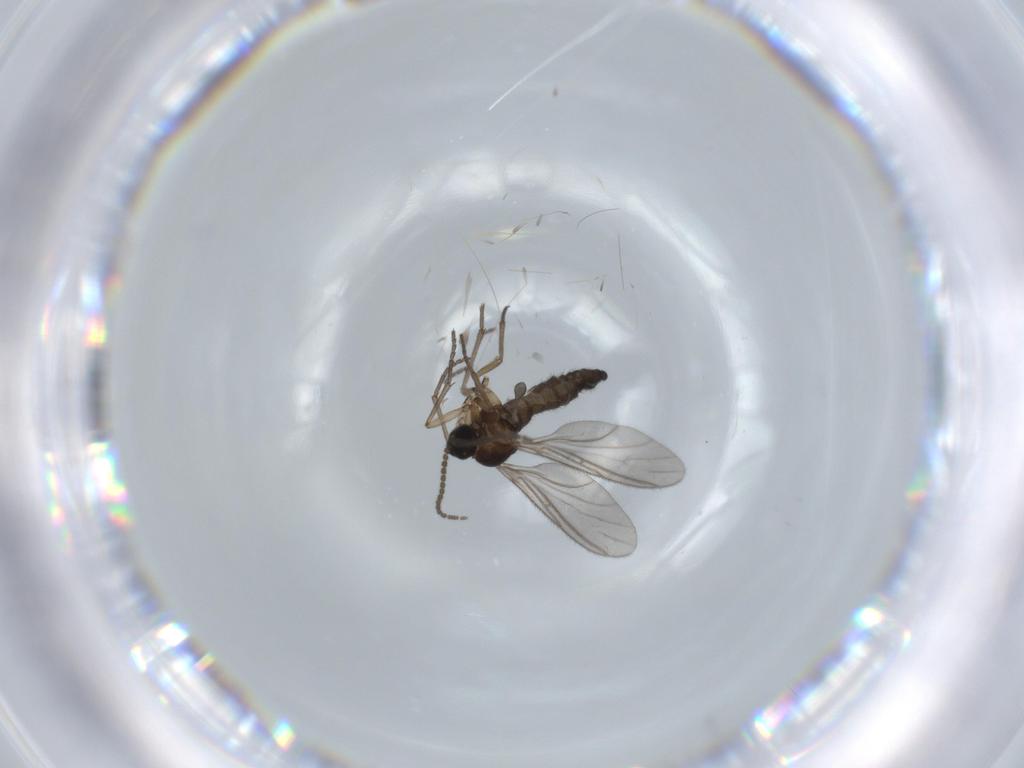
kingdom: Animalia
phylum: Arthropoda
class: Insecta
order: Diptera
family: Sciaridae
